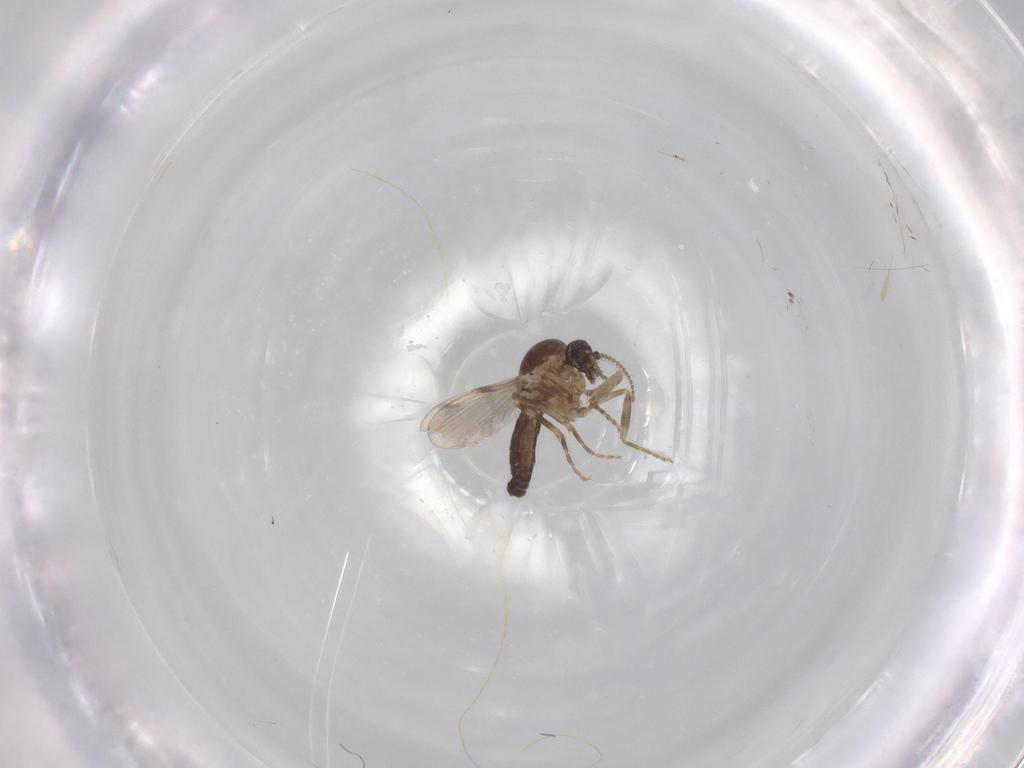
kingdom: Animalia
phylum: Arthropoda
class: Insecta
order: Diptera
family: Ceratopogonidae
